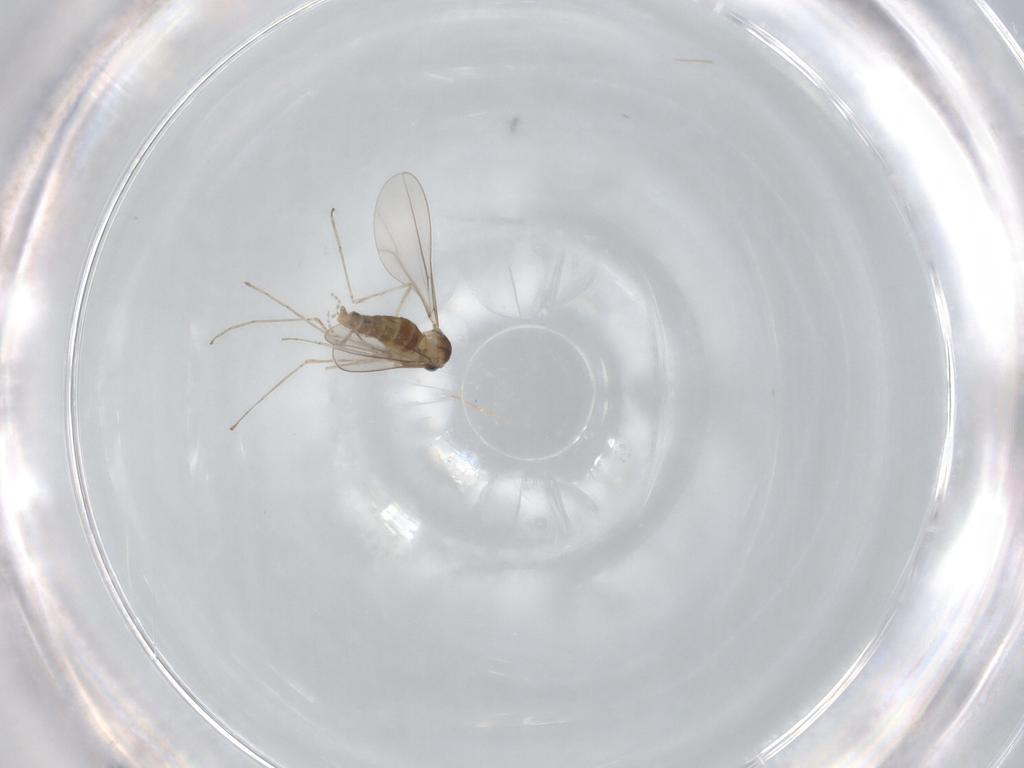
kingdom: Animalia
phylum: Arthropoda
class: Insecta
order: Diptera
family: Cecidomyiidae
